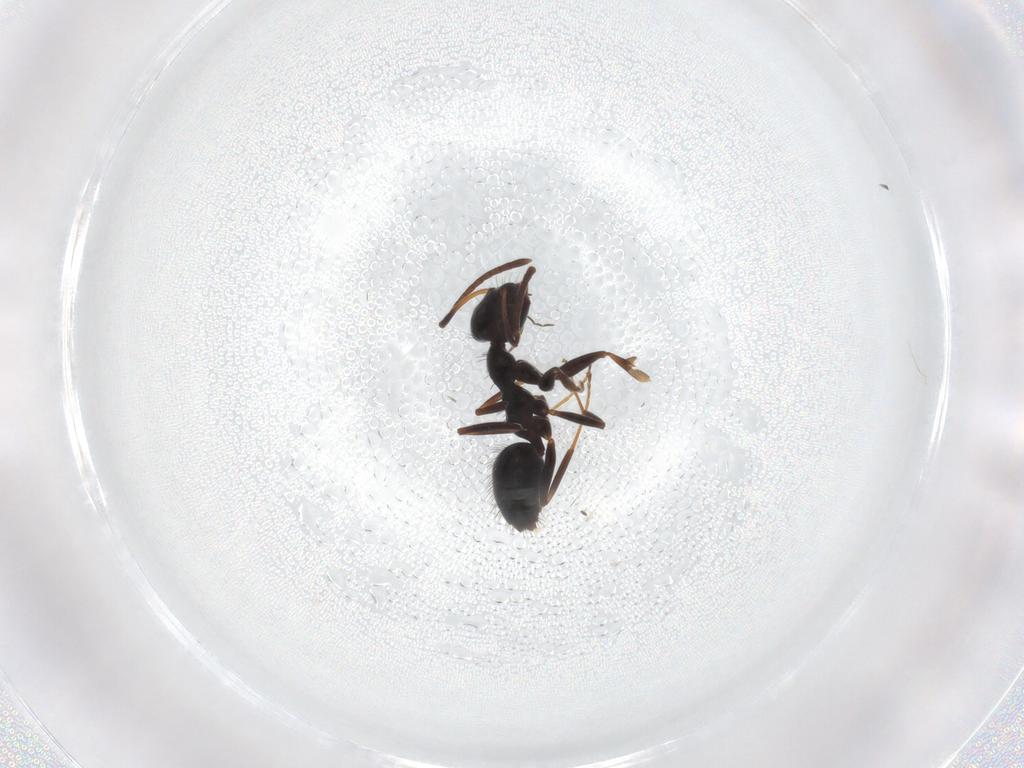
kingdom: Animalia
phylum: Arthropoda
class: Insecta
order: Hymenoptera
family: Formicidae
